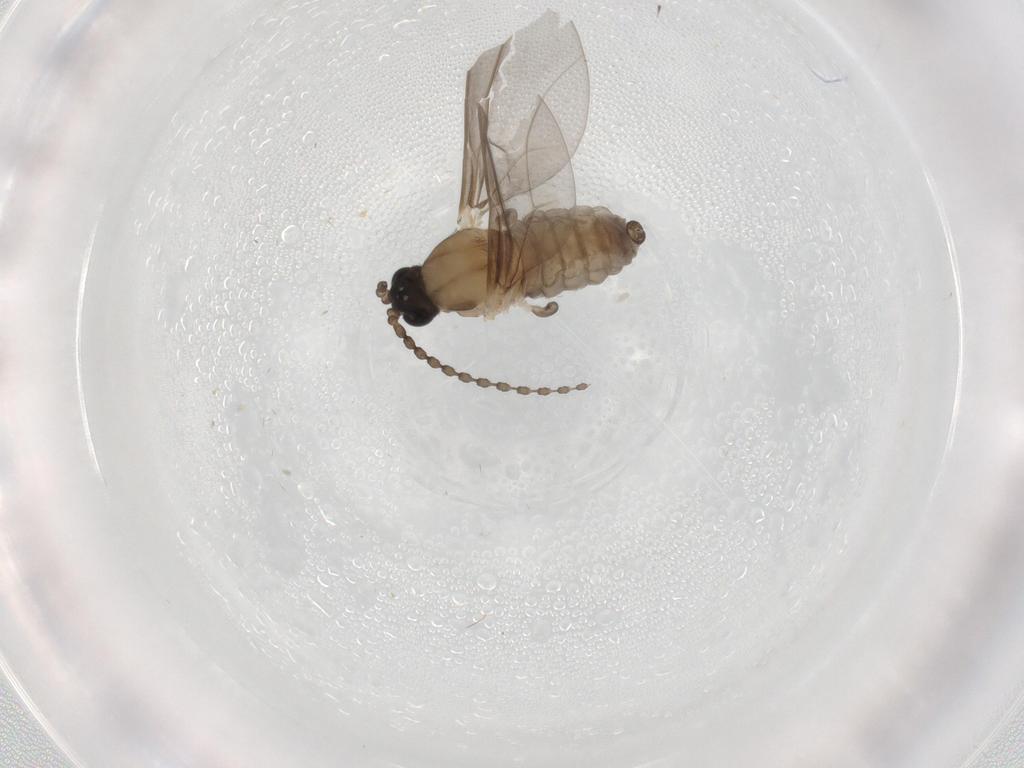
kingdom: Animalia
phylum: Arthropoda
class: Insecta
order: Diptera
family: Cecidomyiidae
